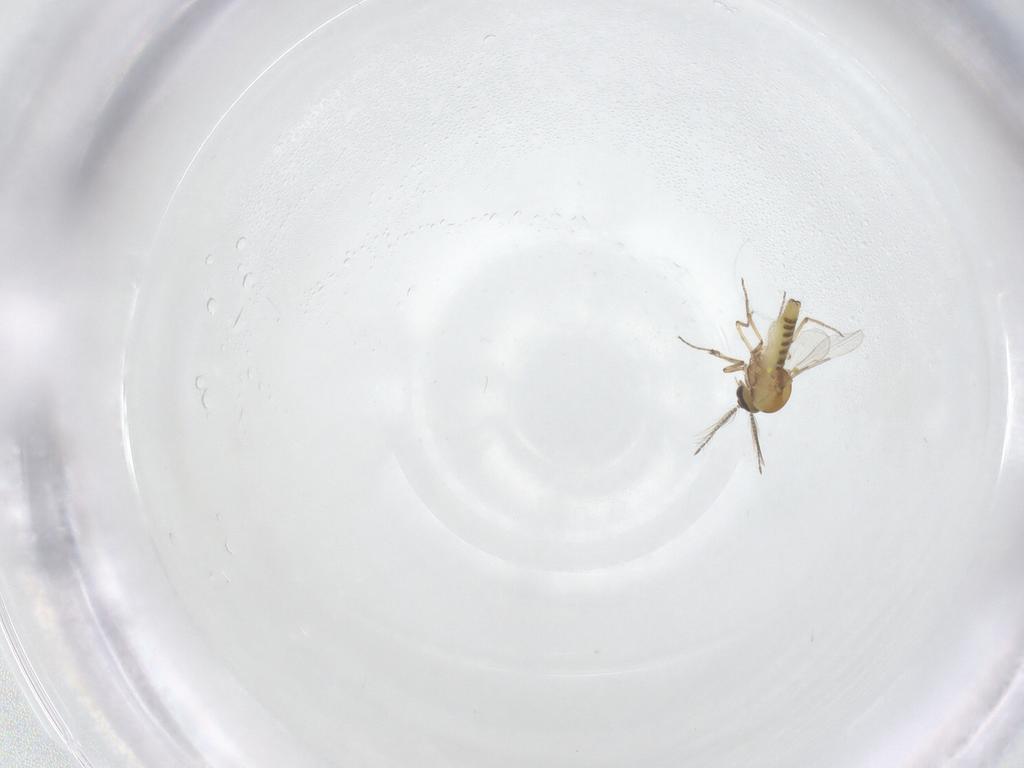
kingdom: Animalia
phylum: Arthropoda
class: Insecta
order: Diptera
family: Ceratopogonidae
